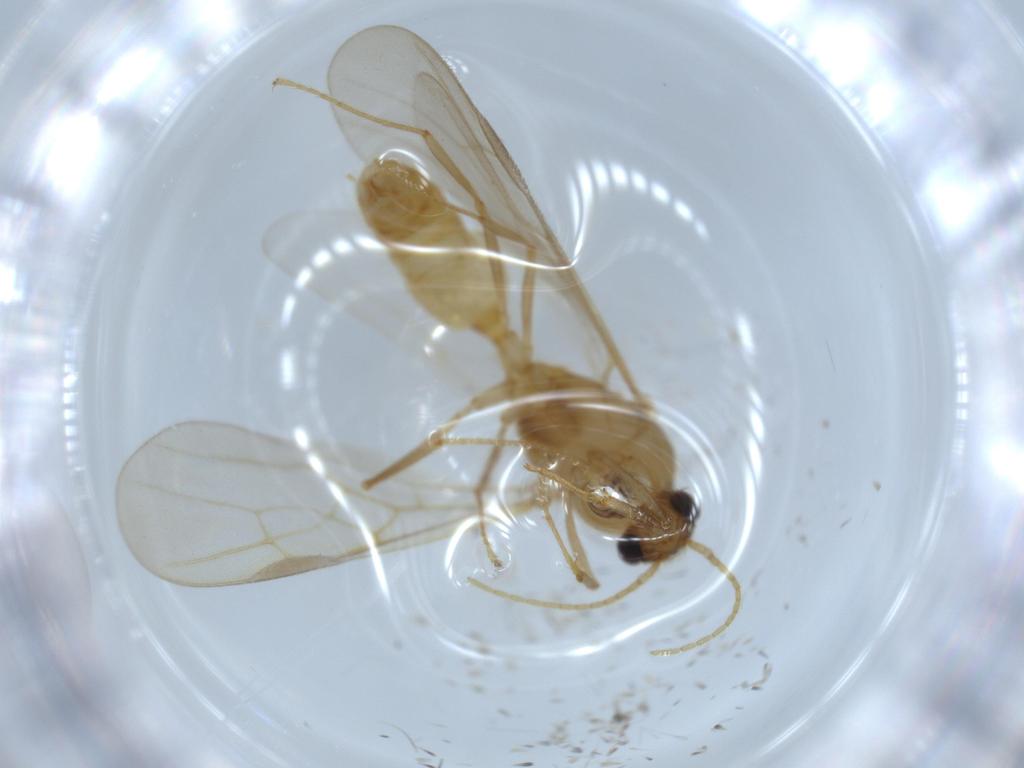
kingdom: Animalia
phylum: Arthropoda
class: Insecta
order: Hymenoptera
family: Formicidae
